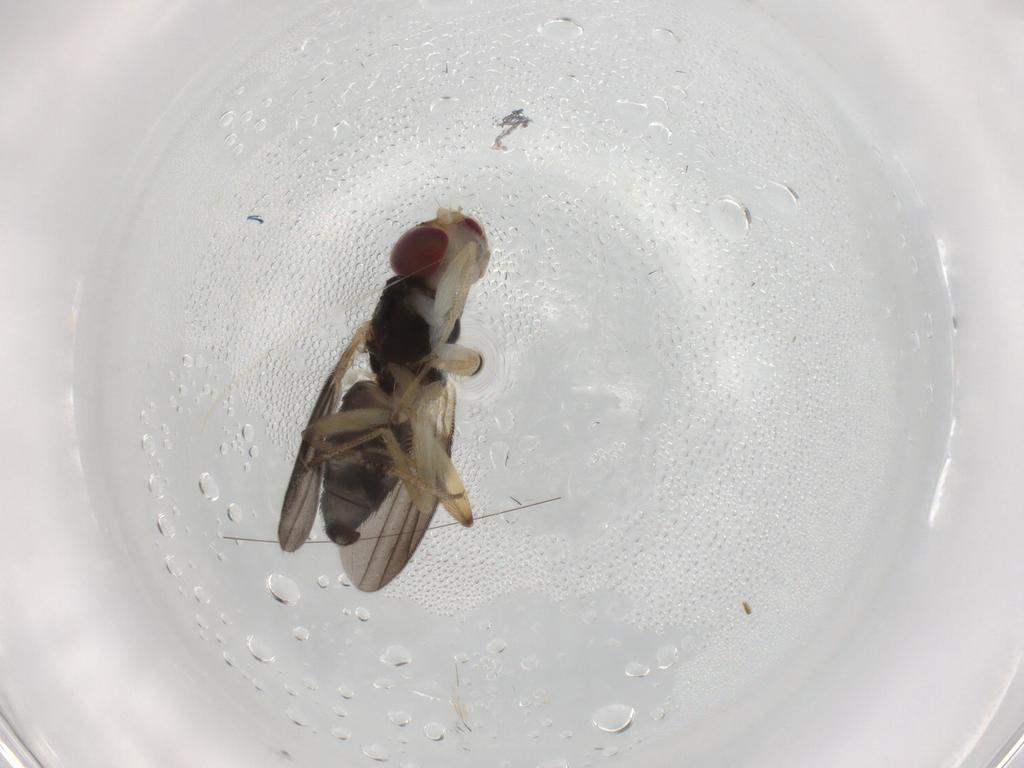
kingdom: Animalia
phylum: Arthropoda
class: Insecta
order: Diptera
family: Clusiidae
